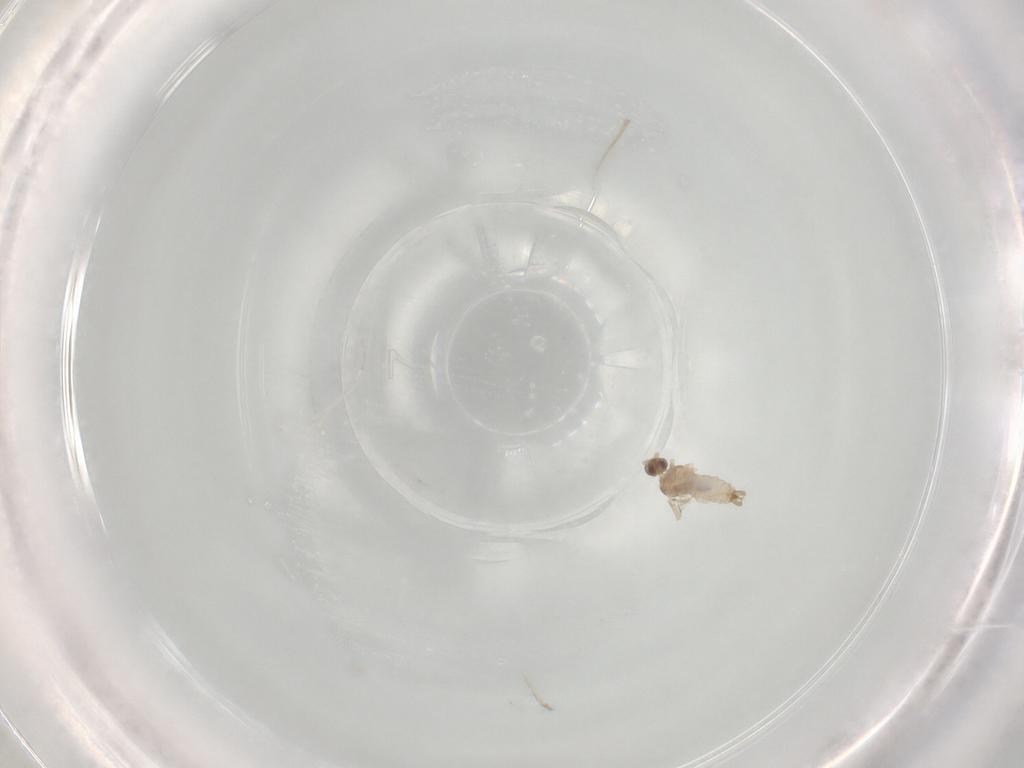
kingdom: Animalia
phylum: Arthropoda
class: Insecta
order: Diptera
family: Cecidomyiidae
